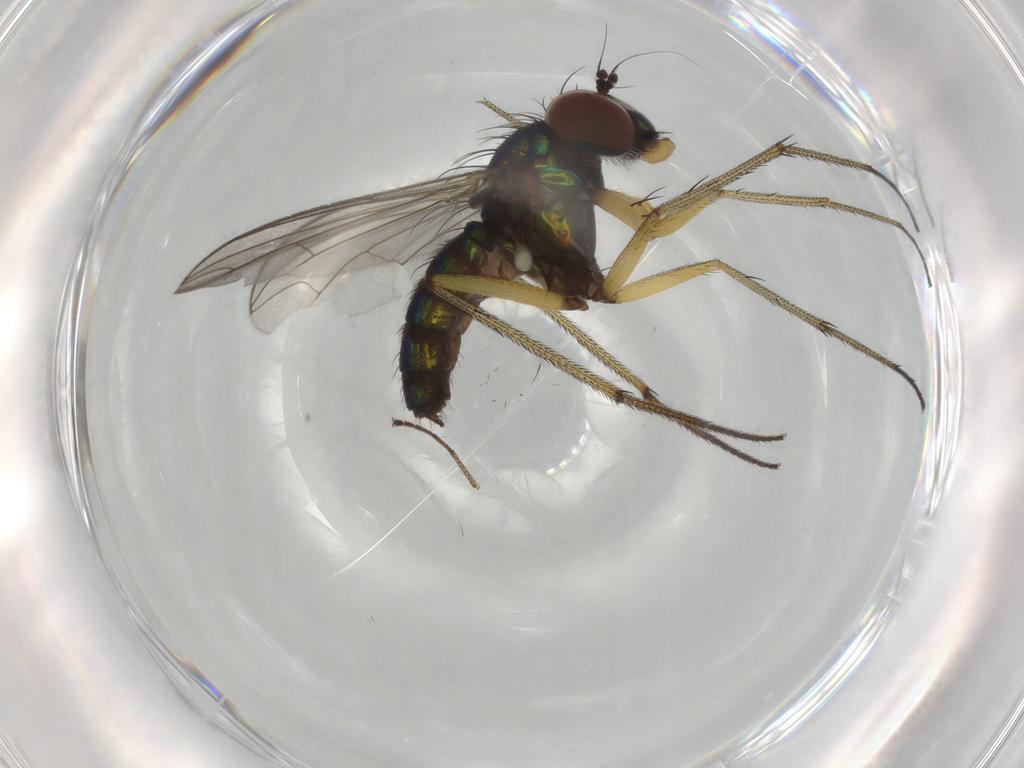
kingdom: Animalia
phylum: Arthropoda
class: Insecta
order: Diptera
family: Dolichopodidae
